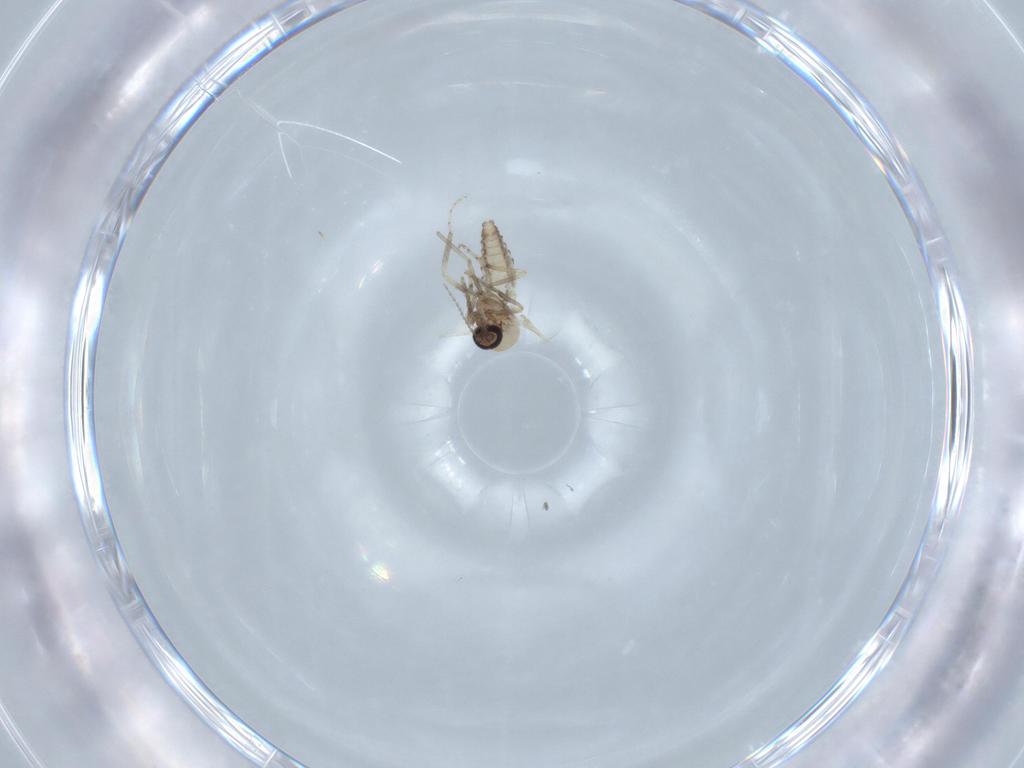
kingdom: Animalia
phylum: Arthropoda
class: Insecta
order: Diptera
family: Ceratopogonidae
